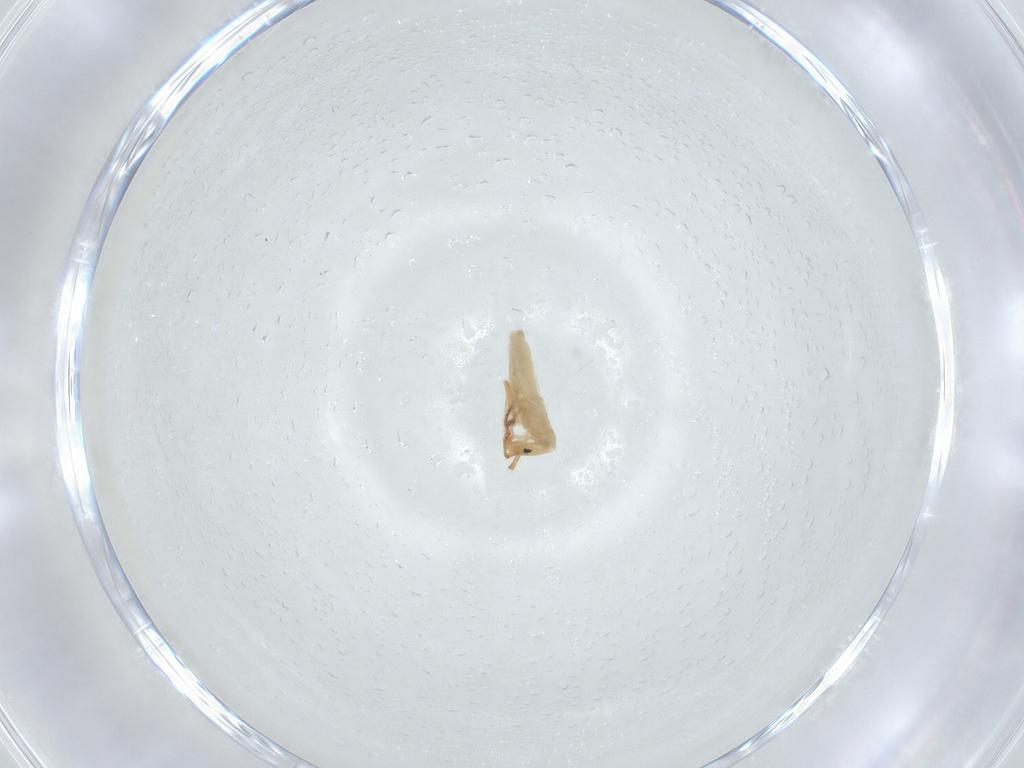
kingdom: Animalia
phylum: Arthropoda
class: Collembola
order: Entomobryomorpha
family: Entomobryidae
